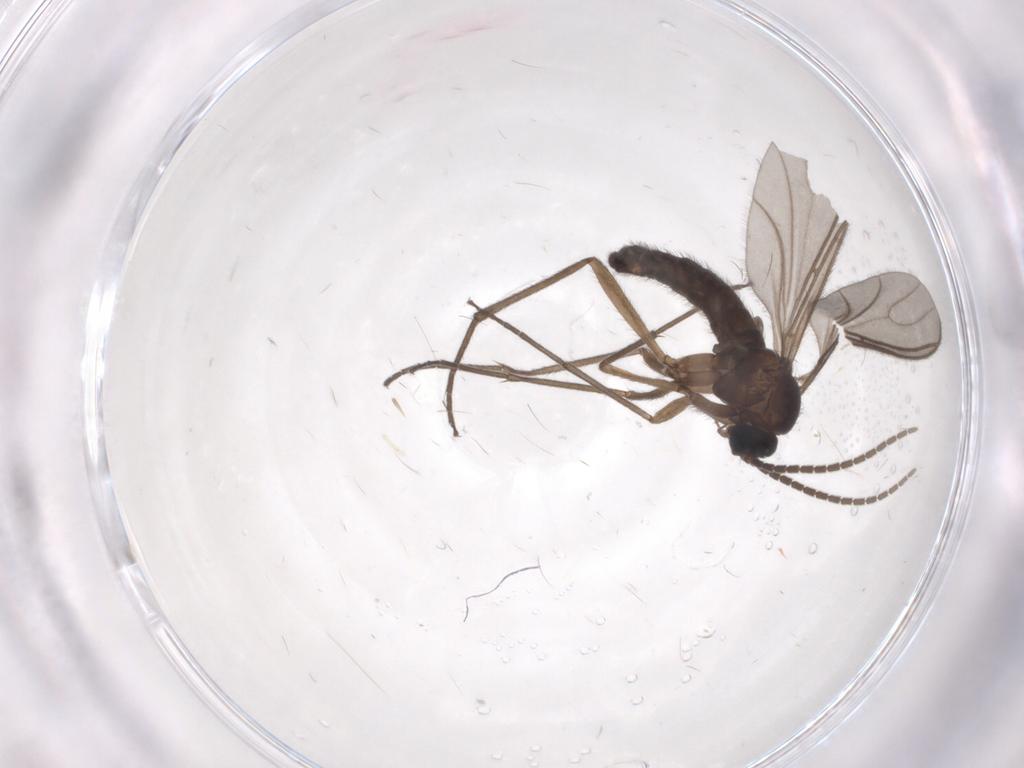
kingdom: Animalia
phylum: Arthropoda
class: Insecta
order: Diptera
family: Sciaridae
